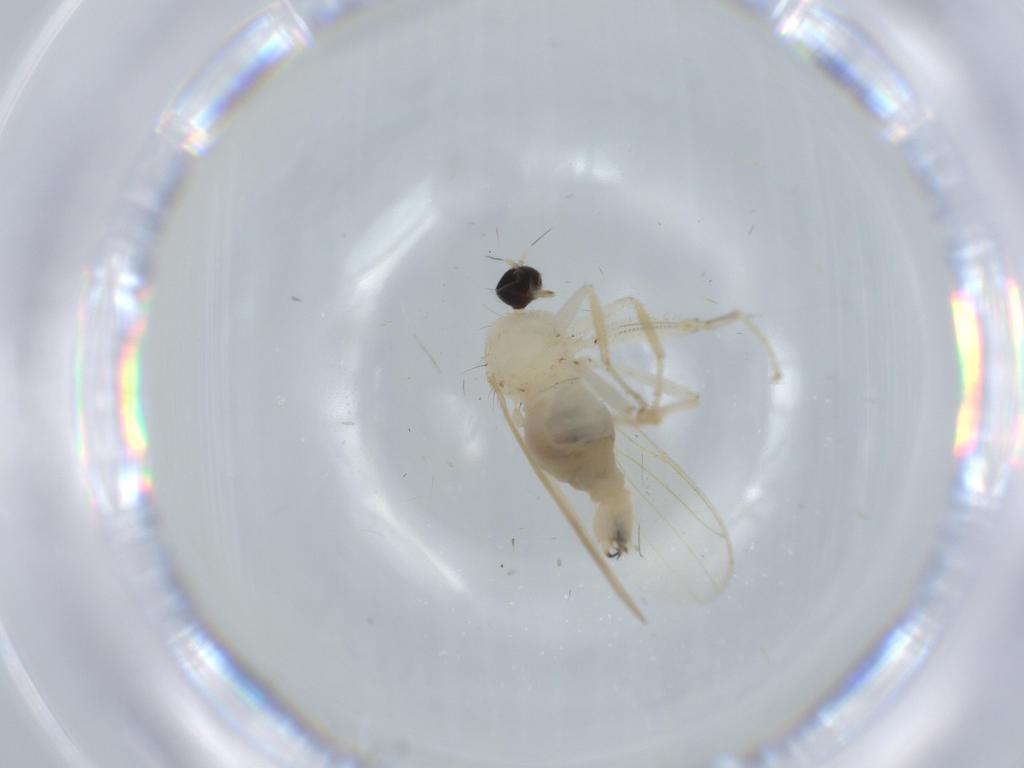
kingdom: Animalia
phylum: Arthropoda
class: Insecta
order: Diptera
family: Hybotidae
